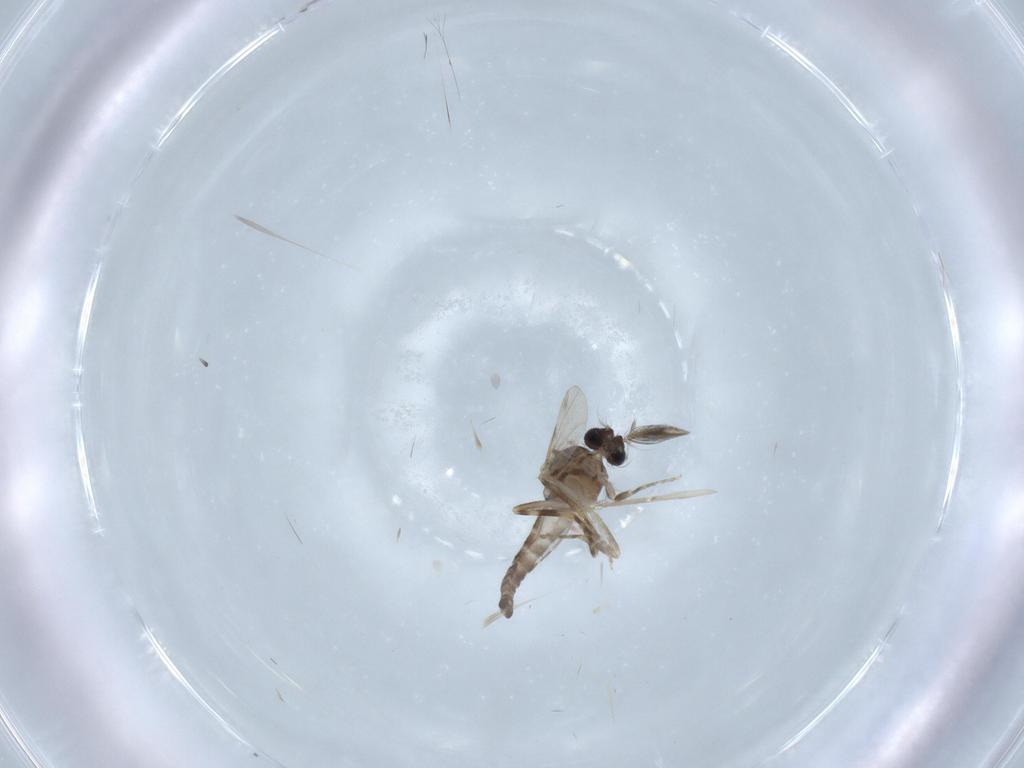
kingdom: Animalia
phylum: Arthropoda
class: Insecta
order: Diptera
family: Ceratopogonidae
